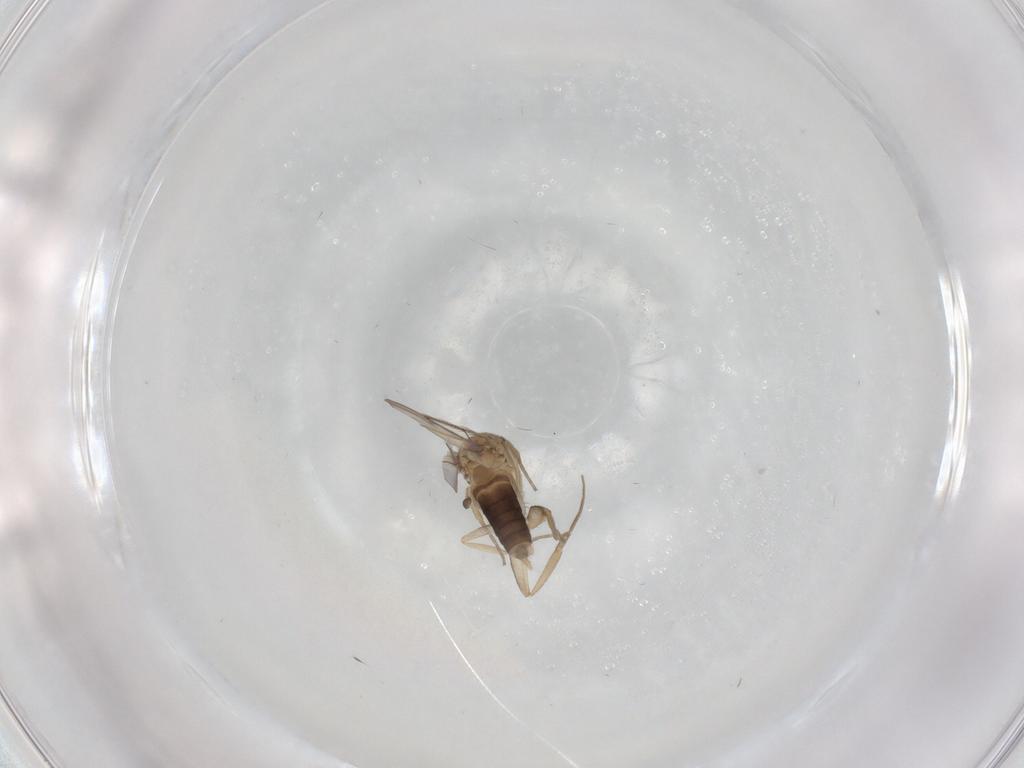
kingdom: Animalia
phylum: Arthropoda
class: Insecta
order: Diptera
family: Phoridae
